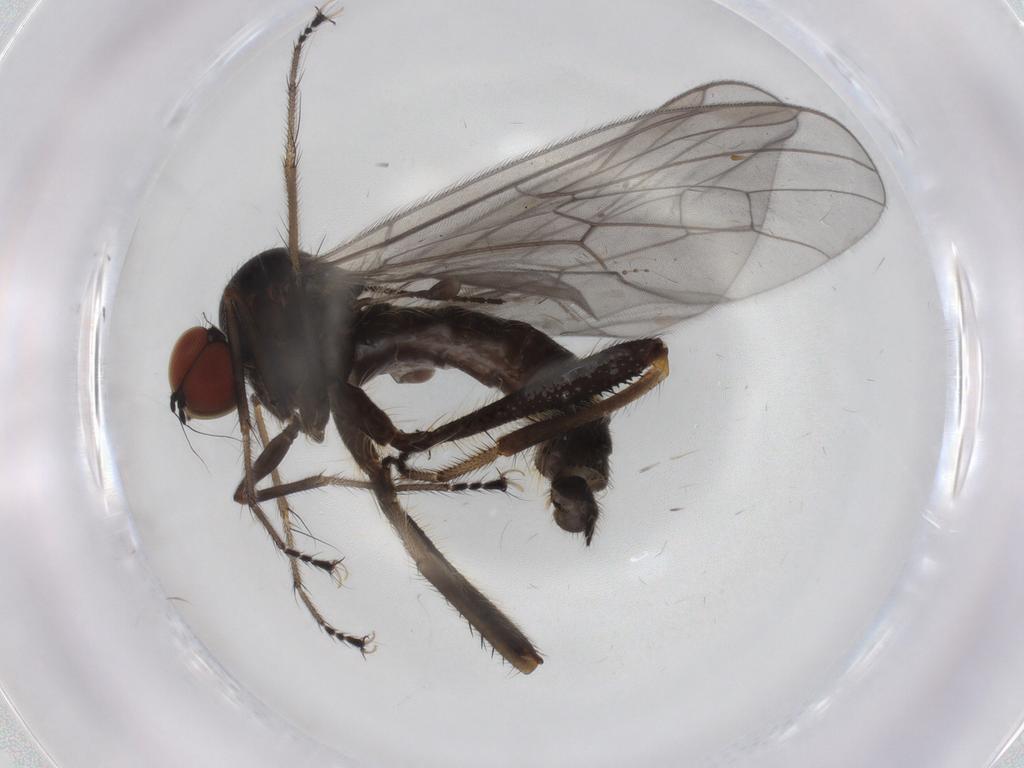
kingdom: Animalia
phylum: Arthropoda
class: Insecta
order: Diptera
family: Hybotidae
